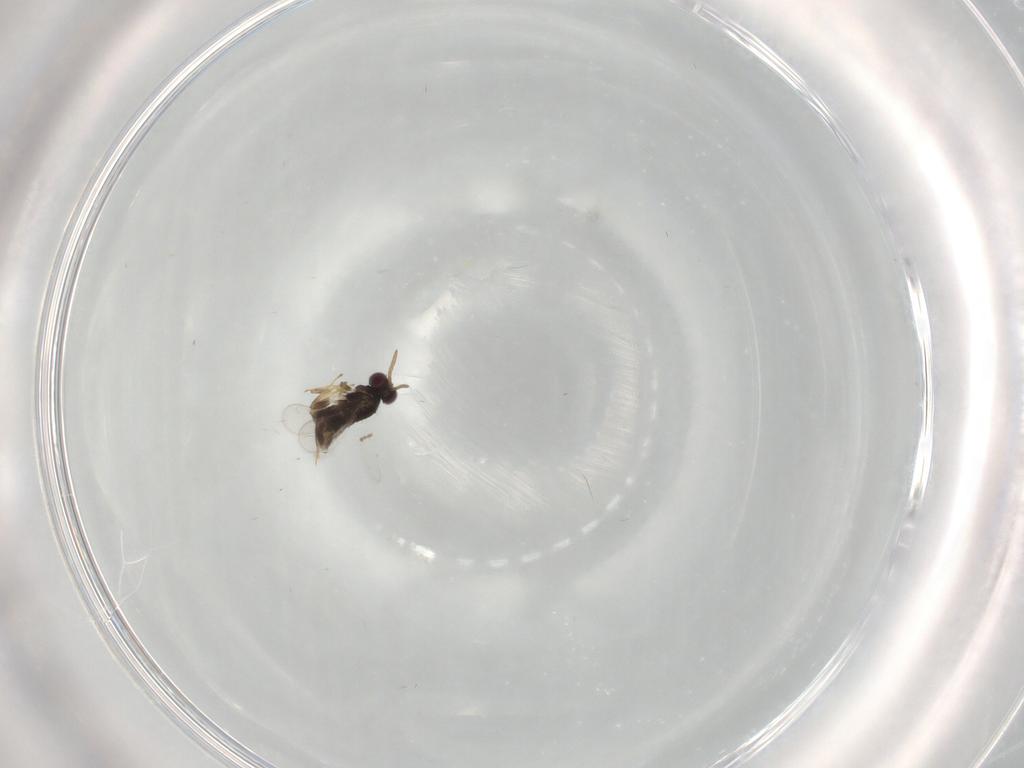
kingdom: Animalia
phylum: Arthropoda
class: Insecta
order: Hymenoptera
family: Aphelinidae
